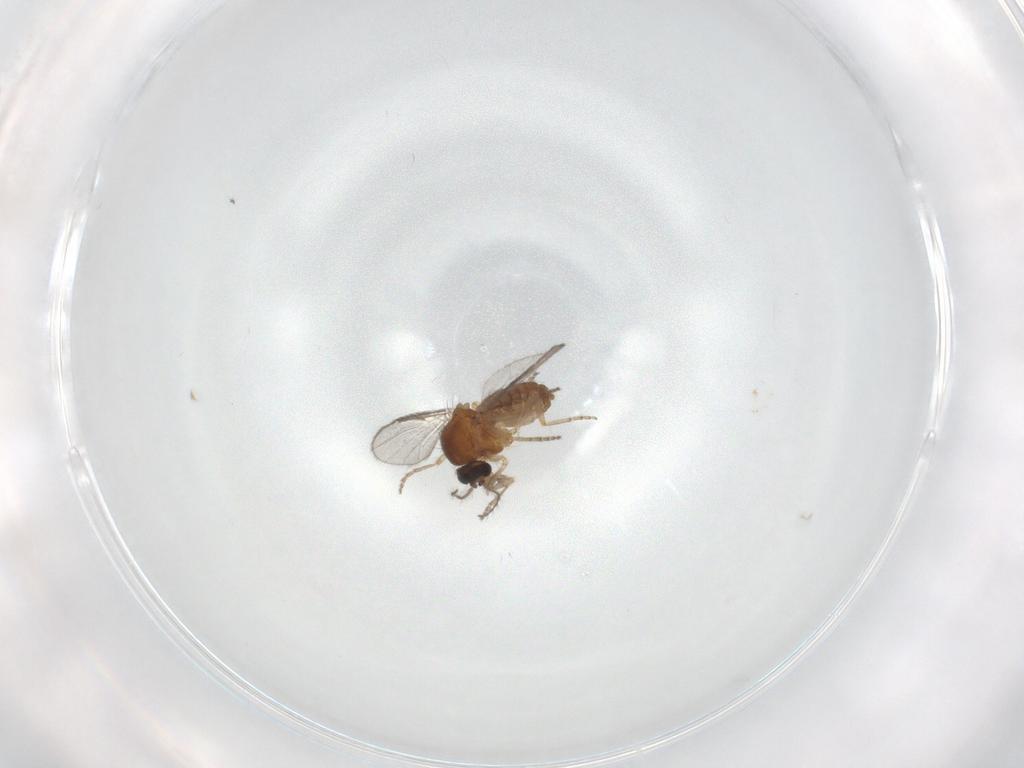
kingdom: Animalia
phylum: Arthropoda
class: Insecta
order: Diptera
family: Ceratopogonidae
